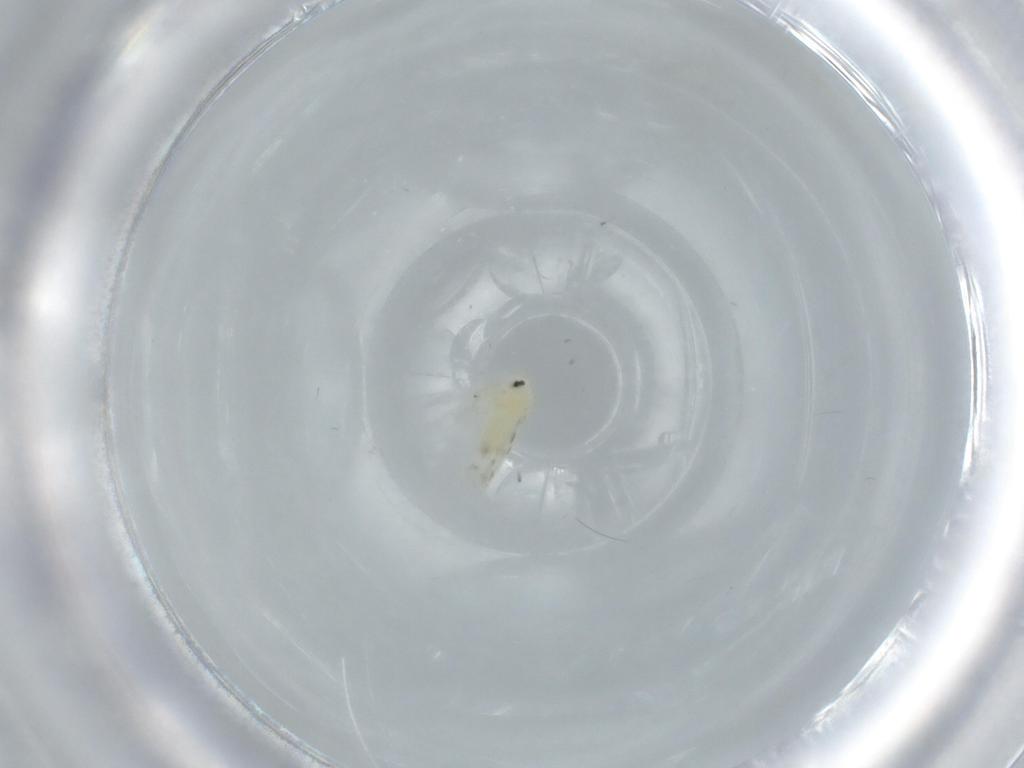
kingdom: Animalia
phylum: Arthropoda
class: Insecta
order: Hemiptera
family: Aleyrodidae
